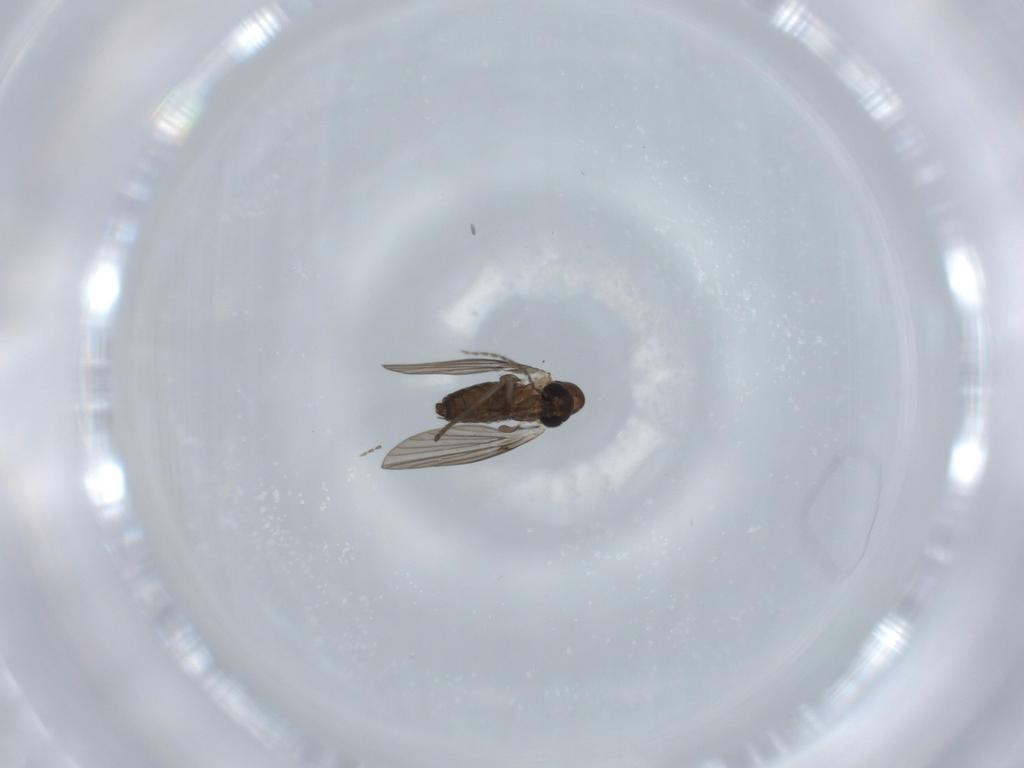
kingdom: Animalia
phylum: Arthropoda
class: Insecta
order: Diptera
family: Psychodidae
